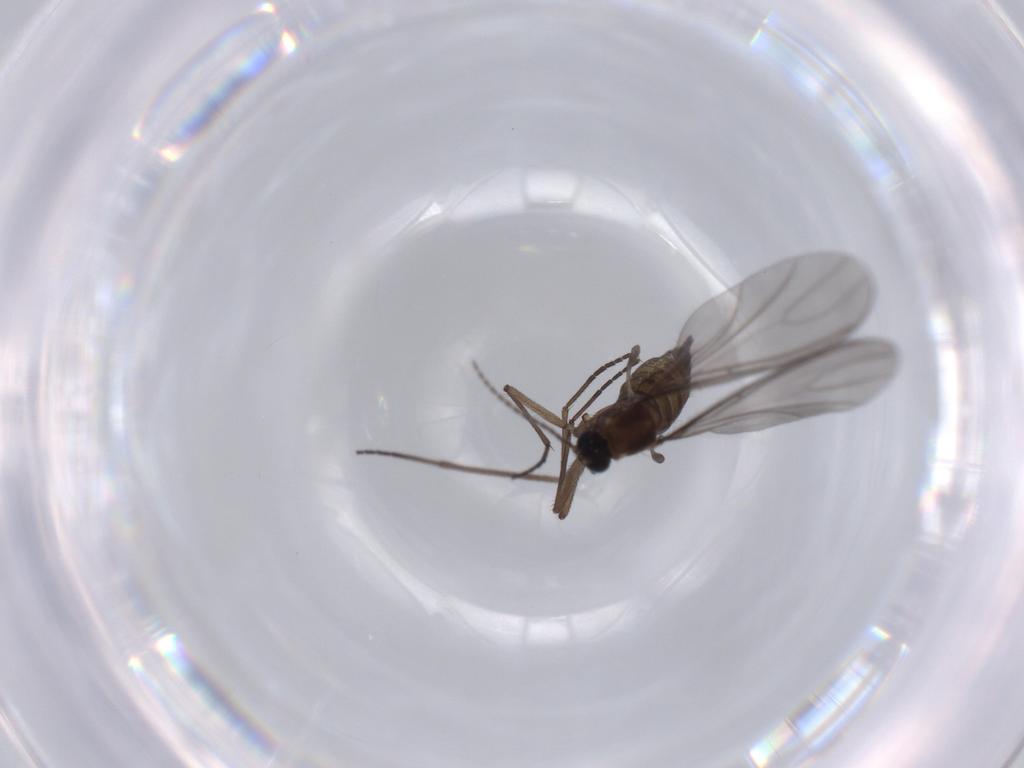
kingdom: Animalia
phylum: Arthropoda
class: Insecta
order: Diptera
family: Sciaridae
